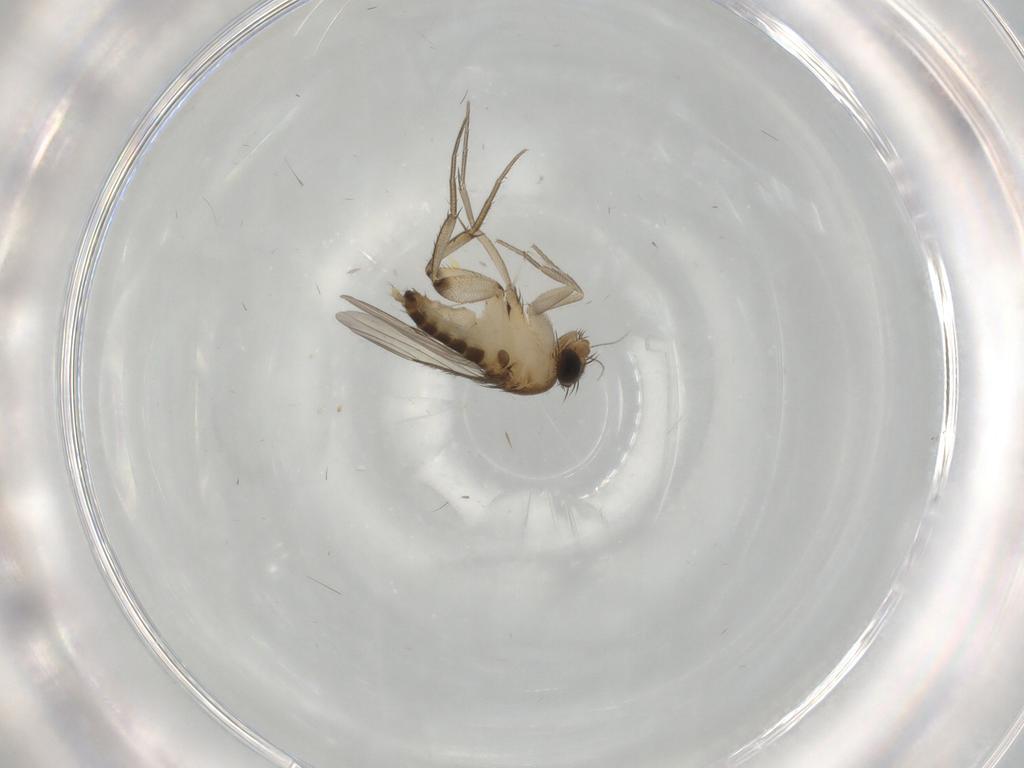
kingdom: Animalia
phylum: Arthropoda
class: Insecta
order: Diptera
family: Phoridae
